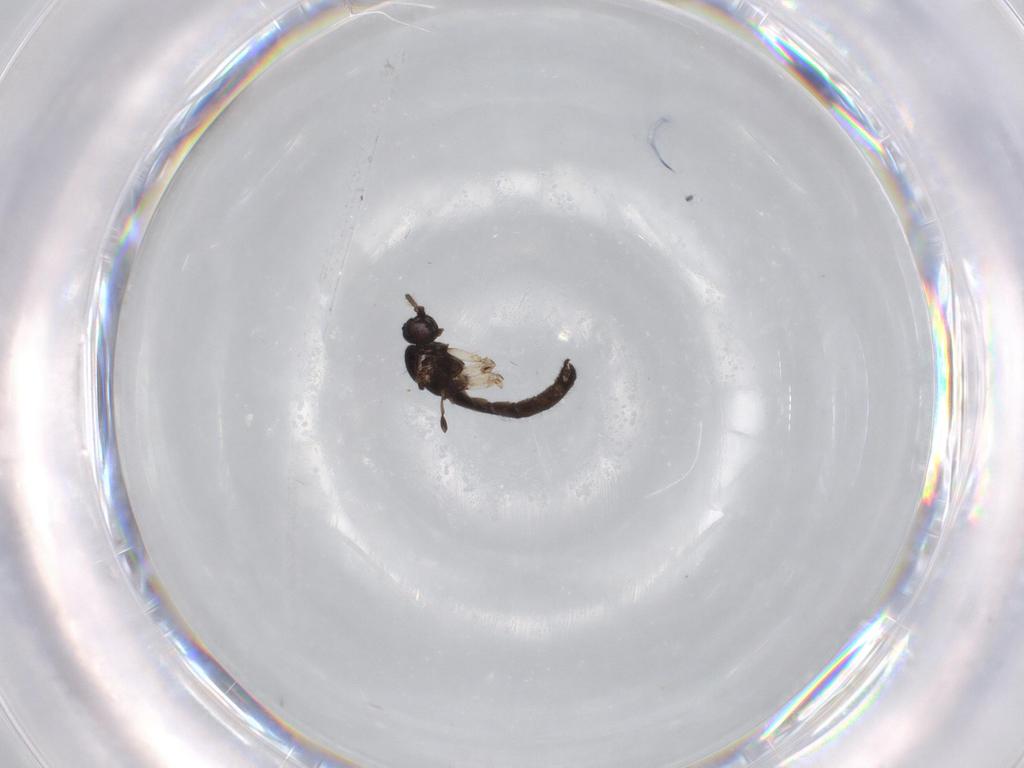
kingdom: Animalia
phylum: Arthropoda
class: Insecta
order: Diptera
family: Sciaridae
